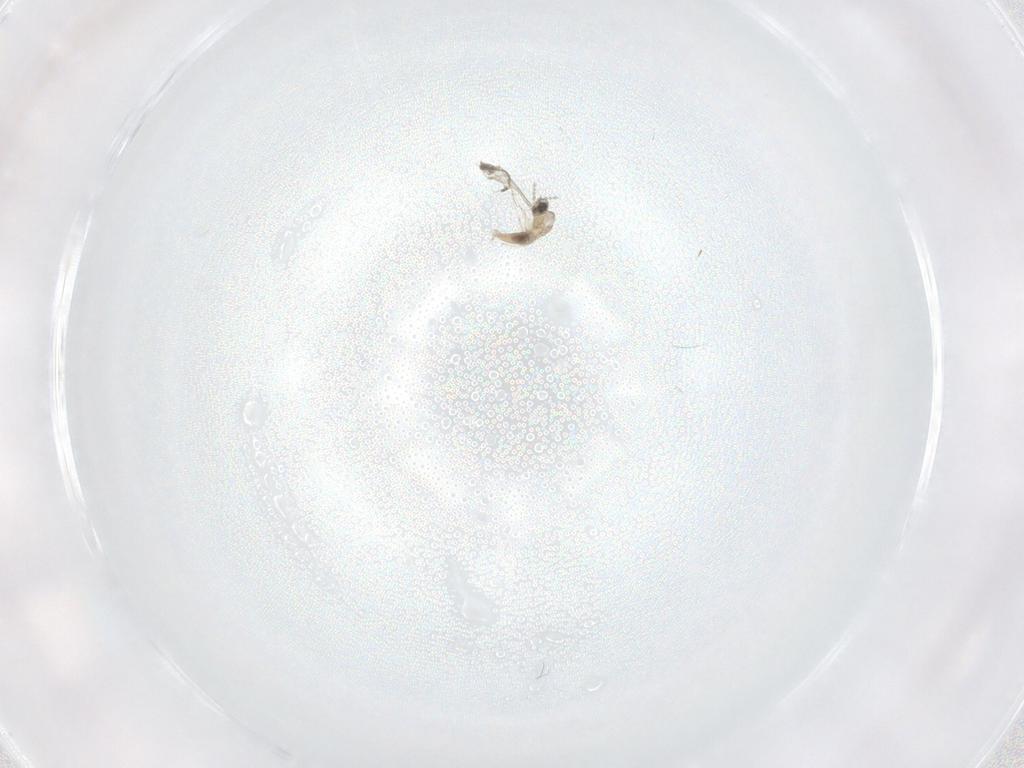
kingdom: Animalia
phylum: Arthropoda
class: Insecta
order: Diptera
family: Cecidomyiidae
